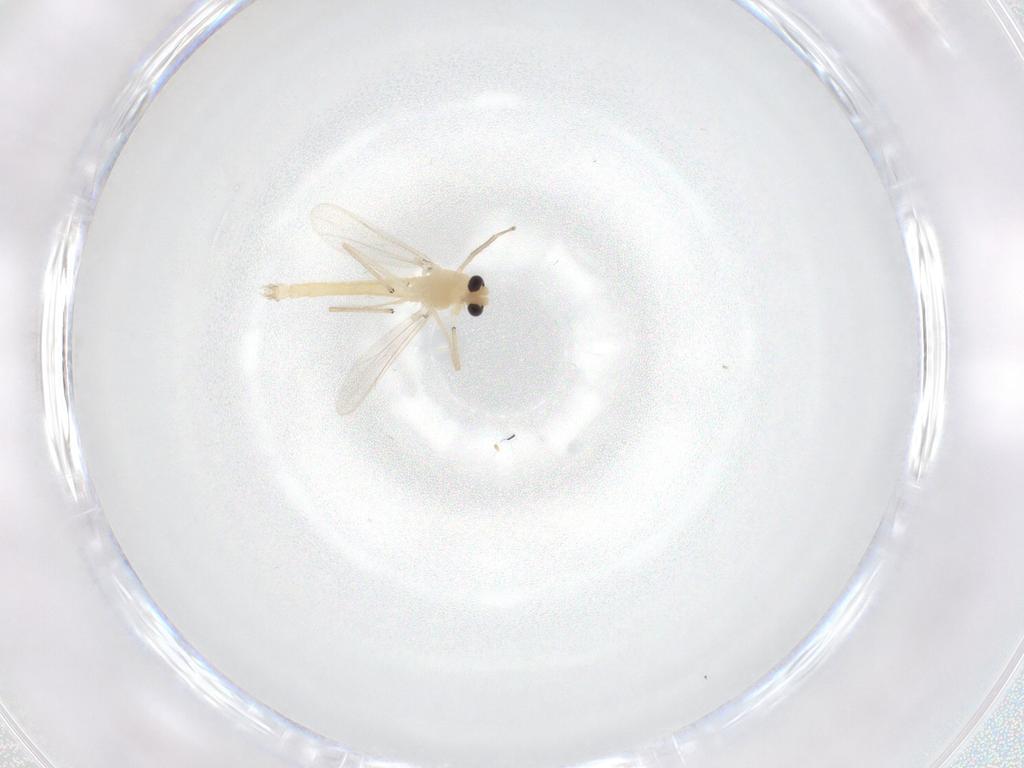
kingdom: Animalia
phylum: Arthropoda
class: Insecta
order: Diptera
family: Chironomidae
